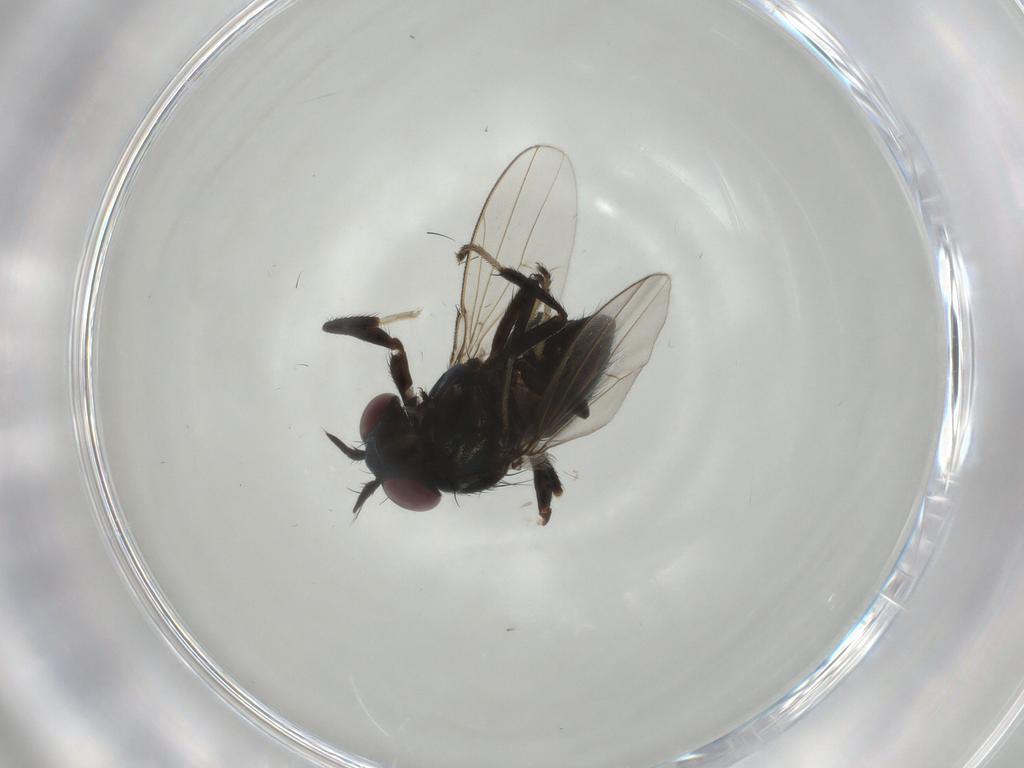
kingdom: Animalia
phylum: Arthropoda
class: Insecta
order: Diptera
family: Ephydridae
